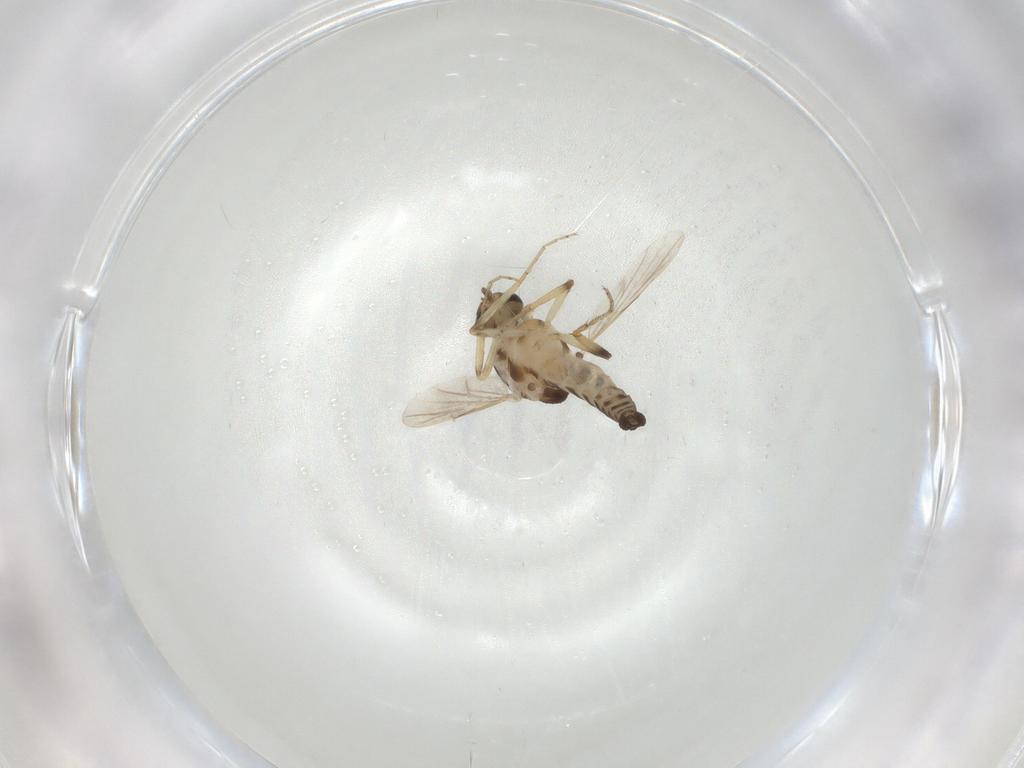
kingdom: Animalia
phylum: Arthropoda
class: Insecta
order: Diptera
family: Ceratopogonidae
